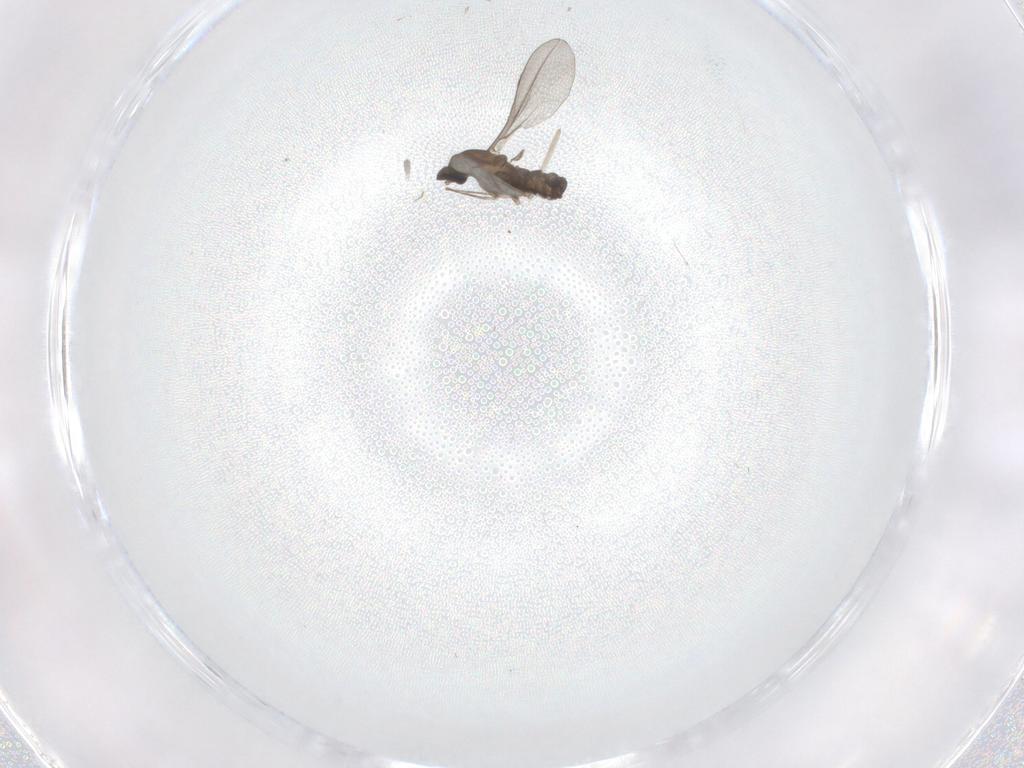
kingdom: Animalia
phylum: Arthropoda
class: Insecta
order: Diptera
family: Cecidomyiidae
